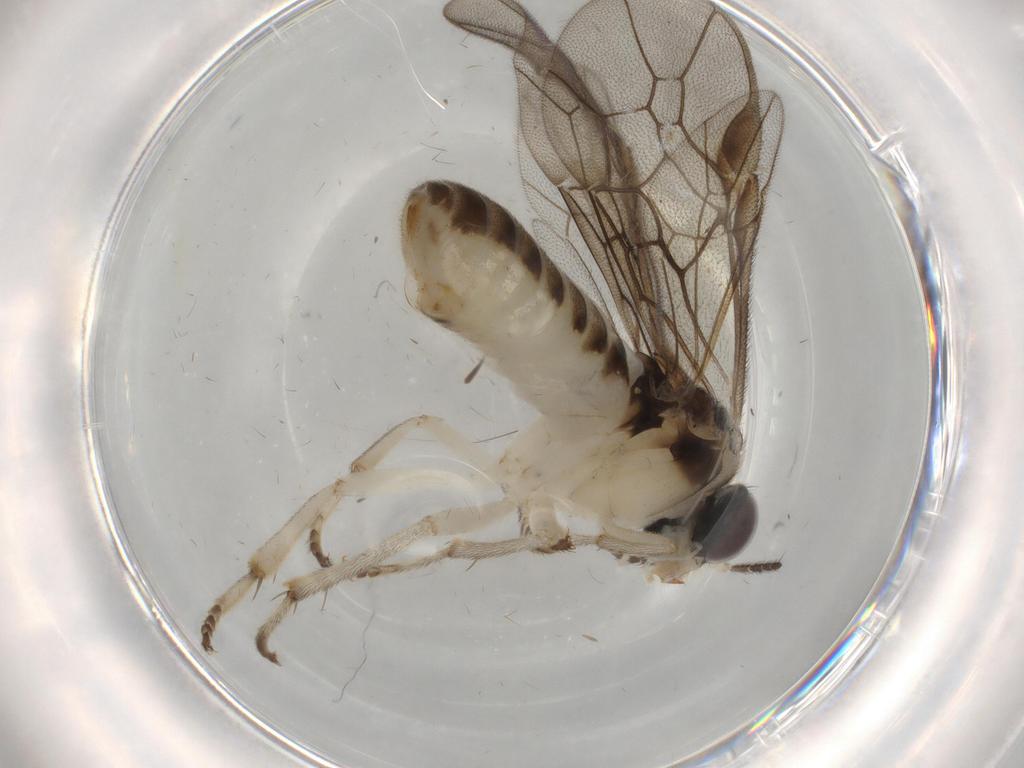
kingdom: Animalia
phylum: Arthropoda
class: Insecta
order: Hymenoptera
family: Pergidae
